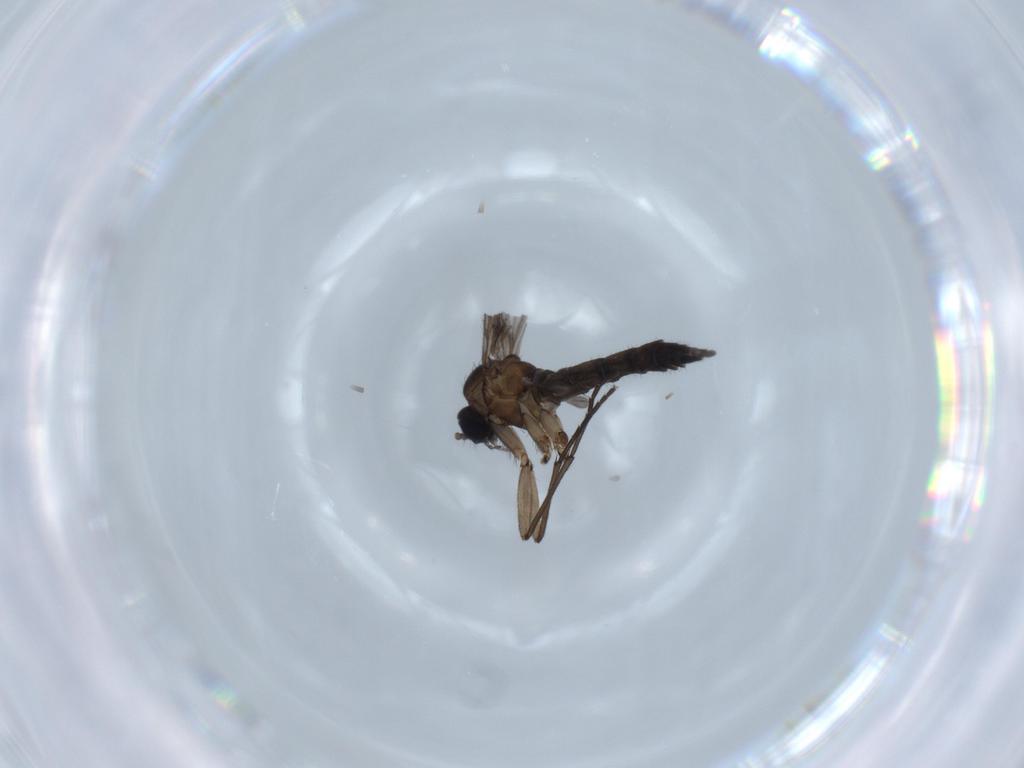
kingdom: Animalia
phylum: Arthropoda
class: Insecta
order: Diptera
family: Sciaridae
